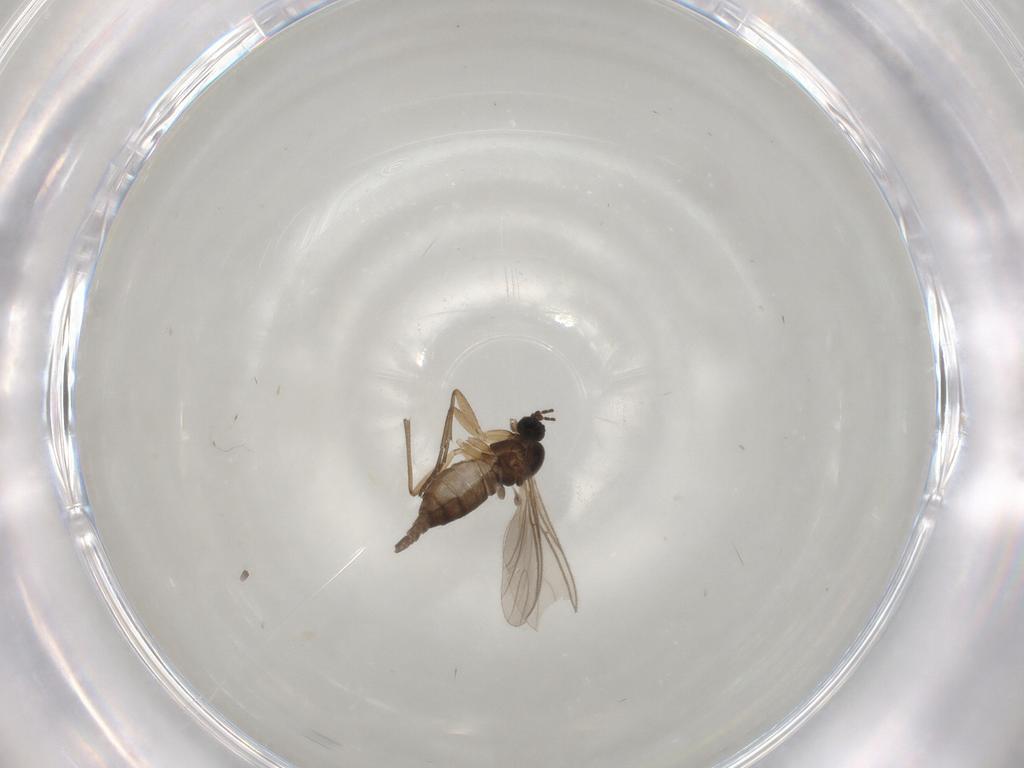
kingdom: Animalia
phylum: Arthropoda
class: Insecta
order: Diptera
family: Sciaridae
